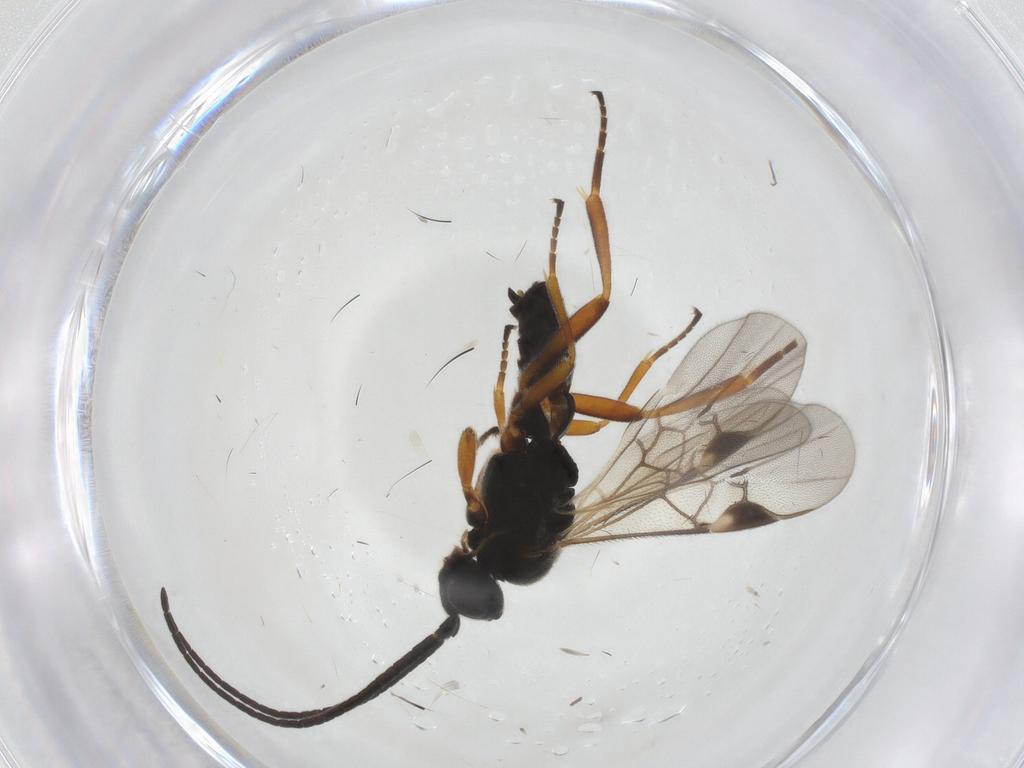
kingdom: Animalia
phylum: Arthropoda
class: Insecta
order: Hymenoptera
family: Braconidae
